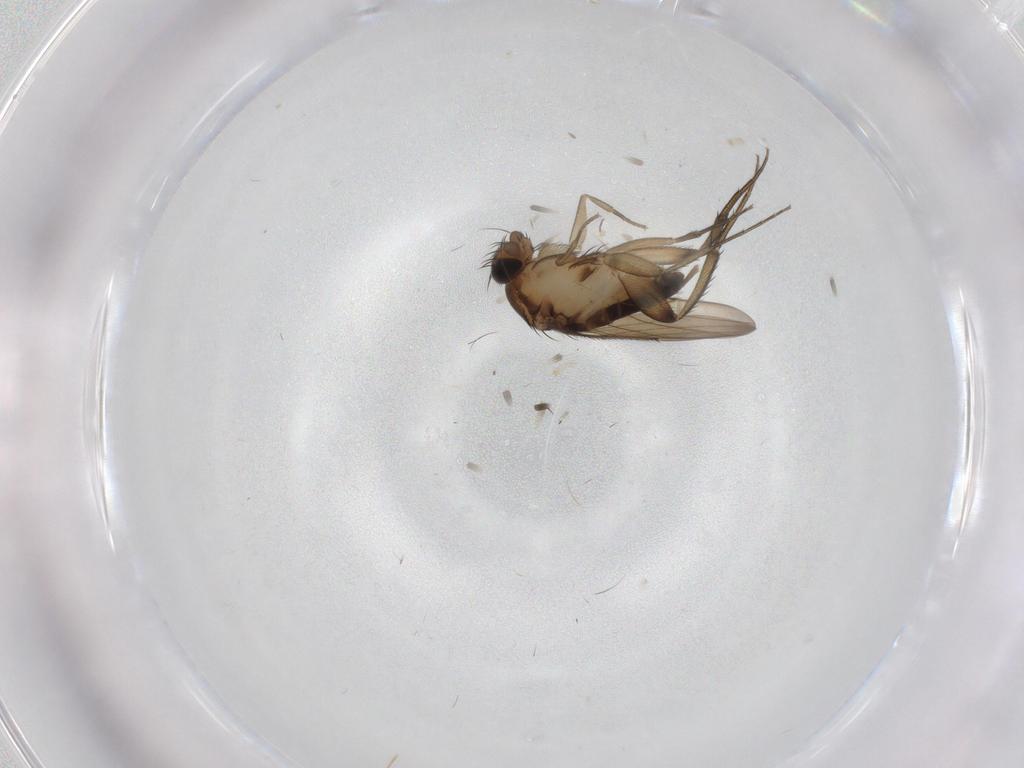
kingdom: Animalia
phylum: Arthropoda
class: Insecta
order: Diptera
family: Phoridae
